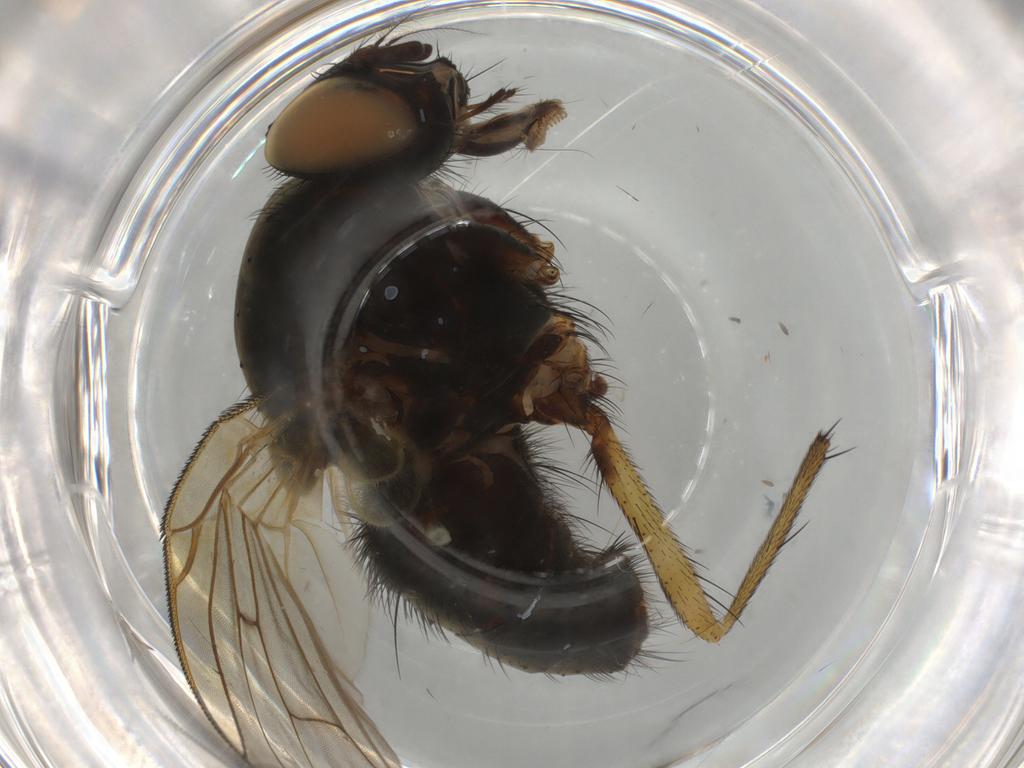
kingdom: Animalia
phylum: Arthropoda
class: Insecta
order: Diptera
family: Muscidae
